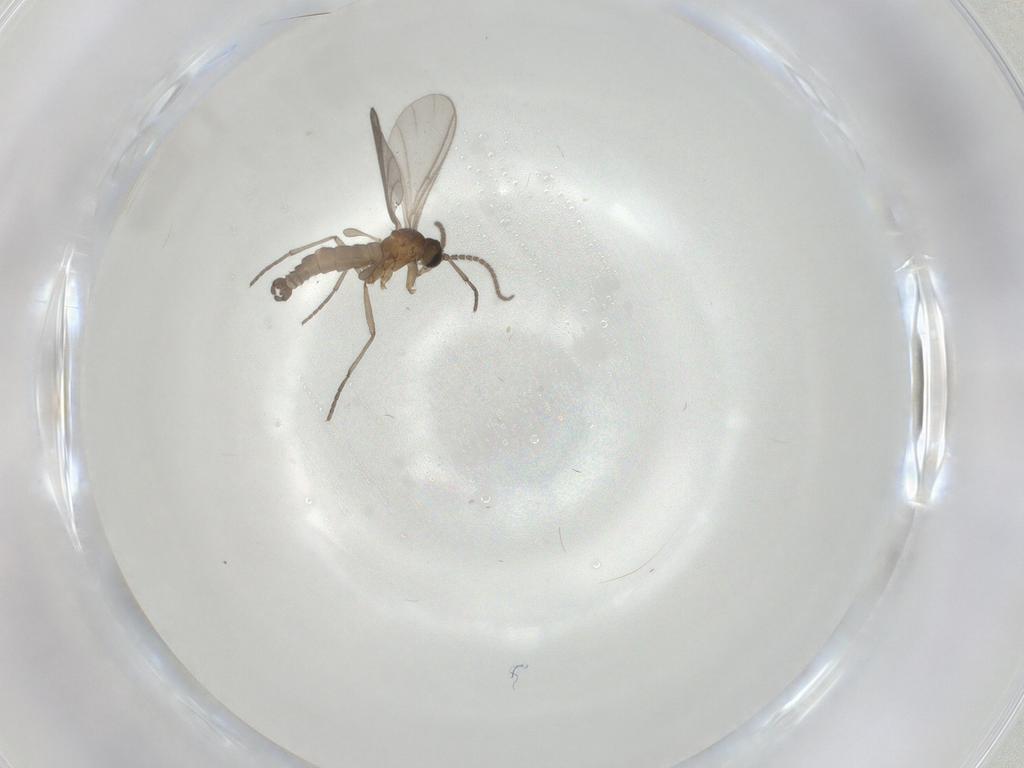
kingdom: Animalia
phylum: Arthropoda
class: Insecta
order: Diptera
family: Sciaridae
